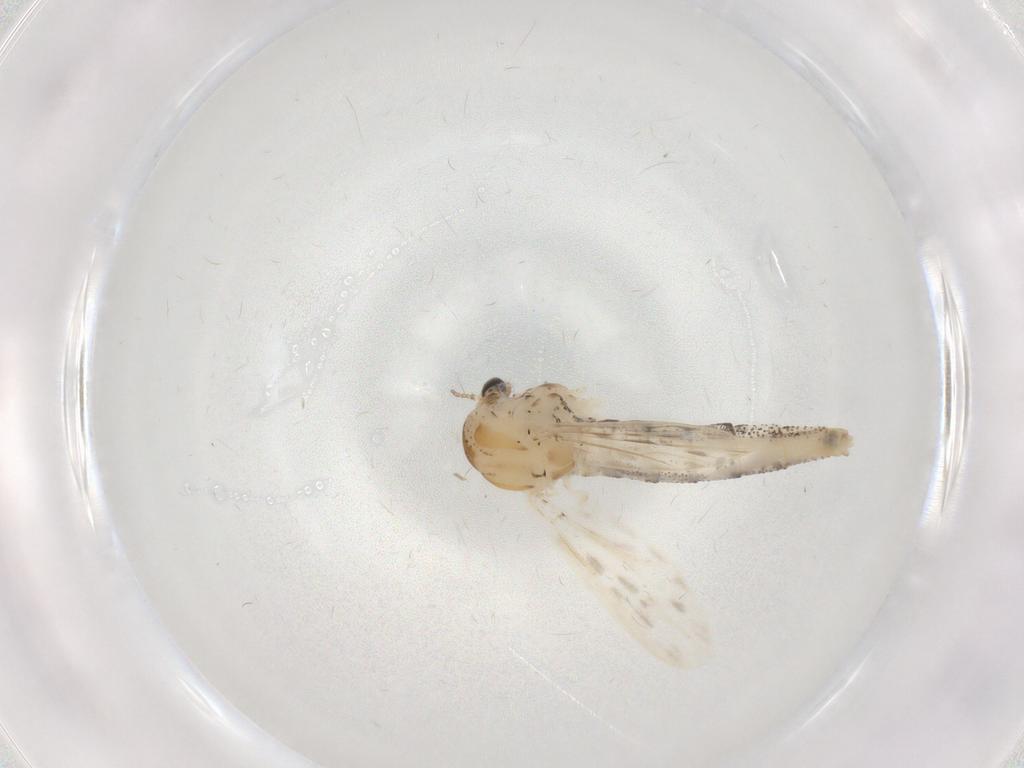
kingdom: Animalia
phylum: Arthropoda
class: Insecta
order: Diptera
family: Chaoboridae
